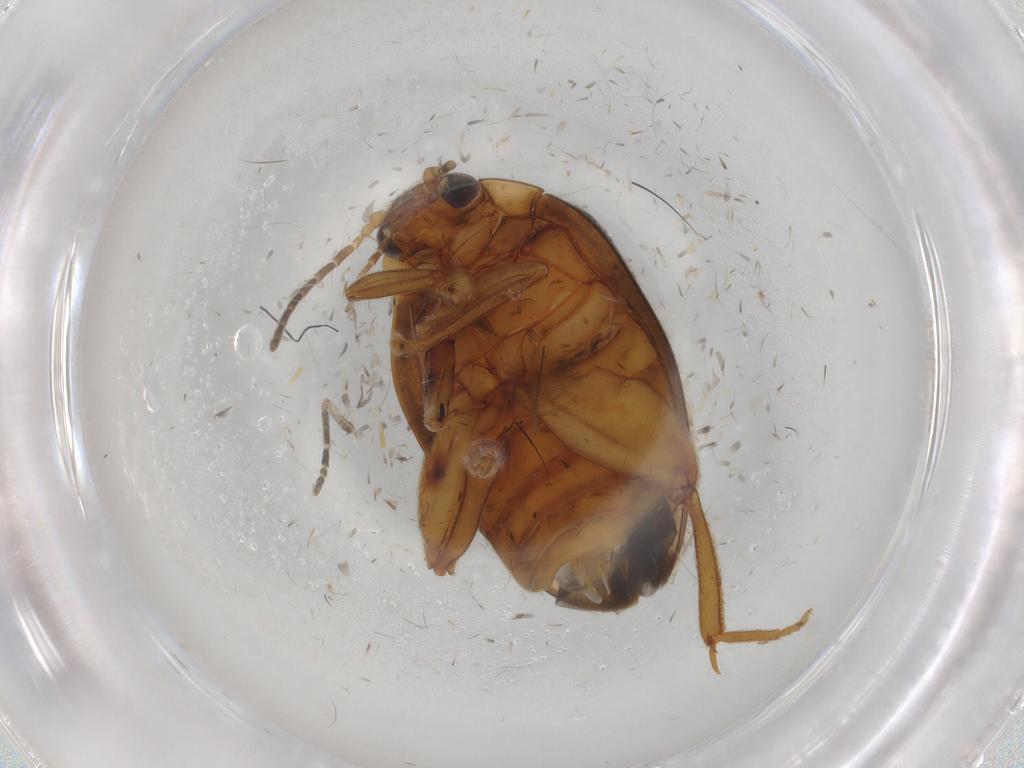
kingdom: Animalia
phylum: Arthropoda
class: Insecta
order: Coleoptera
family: Scirtidae
